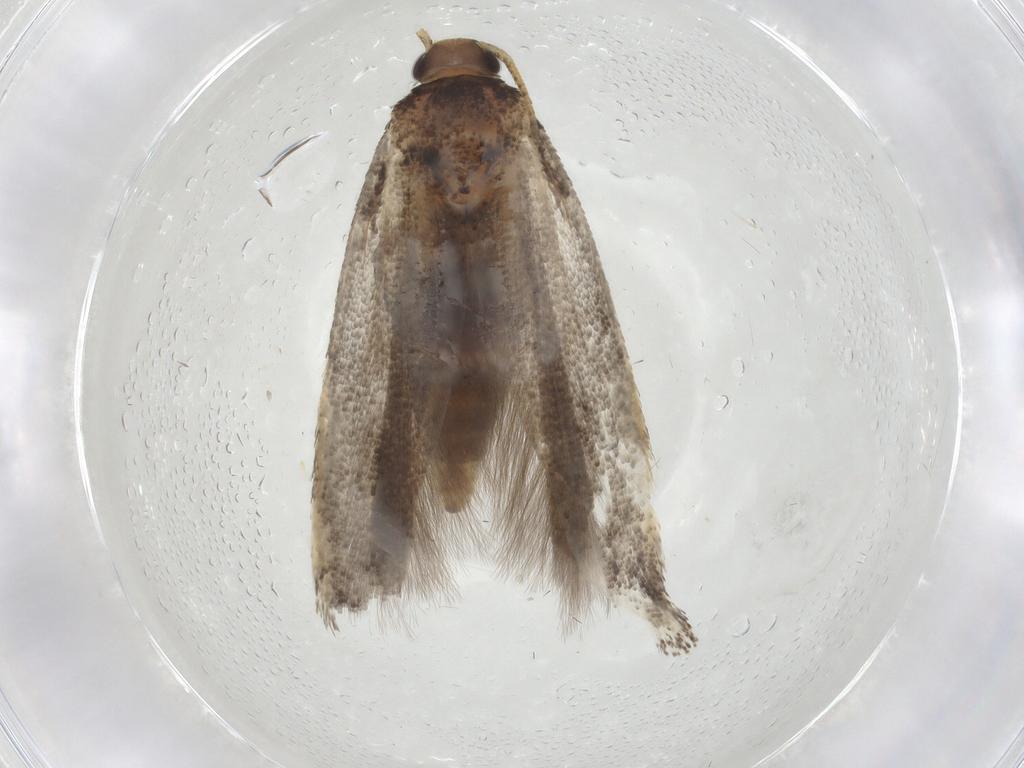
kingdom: Animalia
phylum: Arthropoda
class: Insecta
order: Lepidoptera
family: Gelechiidae
